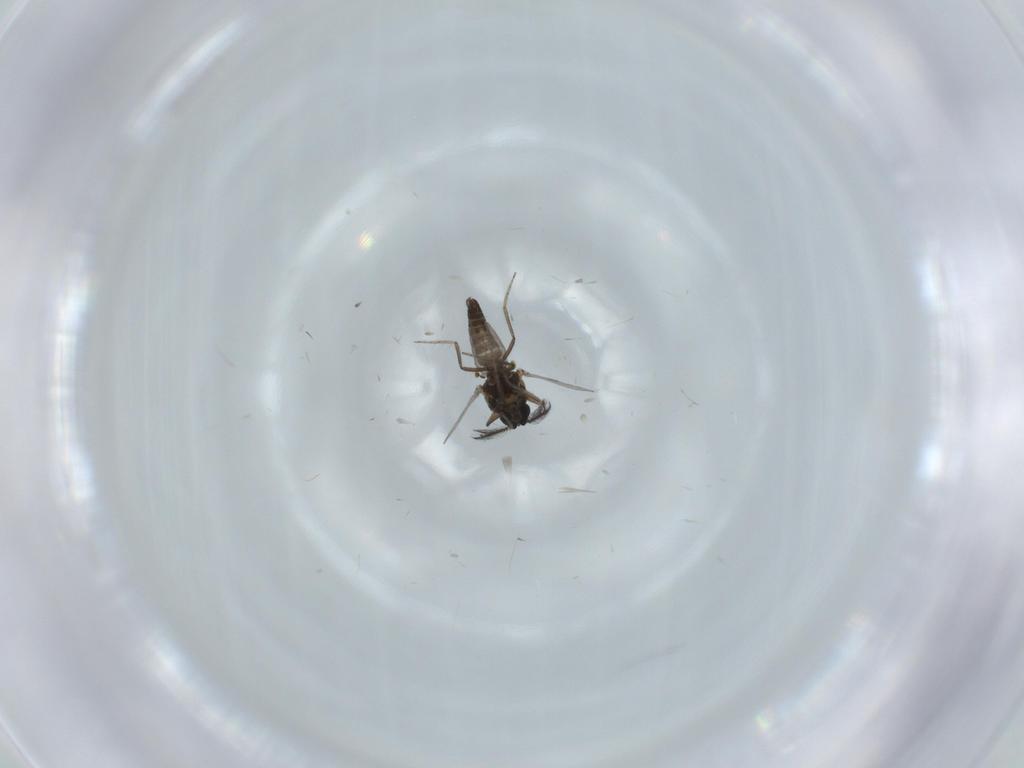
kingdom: Animalia
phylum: Arthropoda
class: Insecta
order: Diptera
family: Ceratopogonidae
